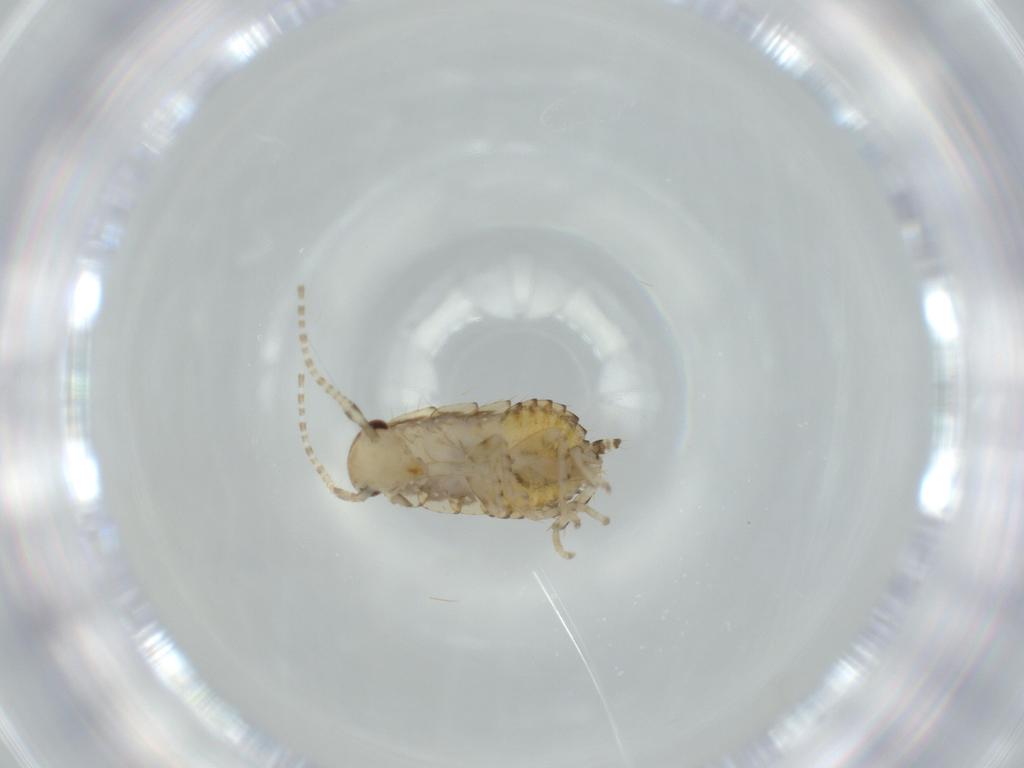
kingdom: Animalia
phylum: Arthropoda
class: Insecta
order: Blattodea
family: Ectobiidae
